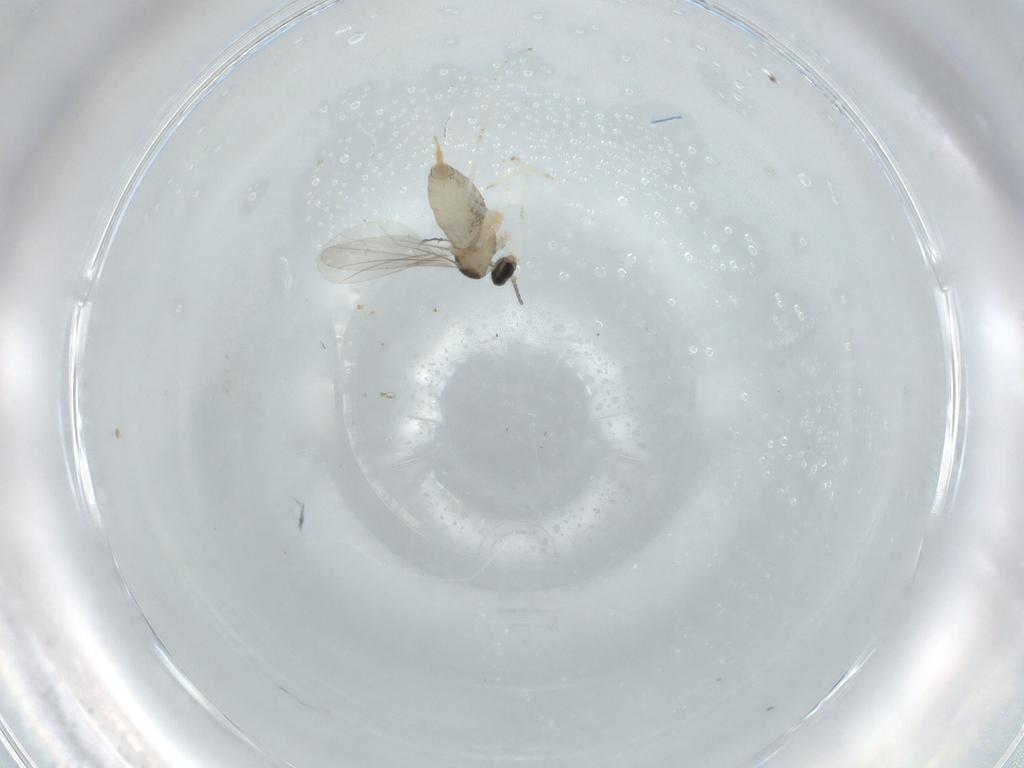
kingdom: Animalia
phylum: Arthropoda
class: Insecta
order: Diptera
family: Cecidomyiidae
